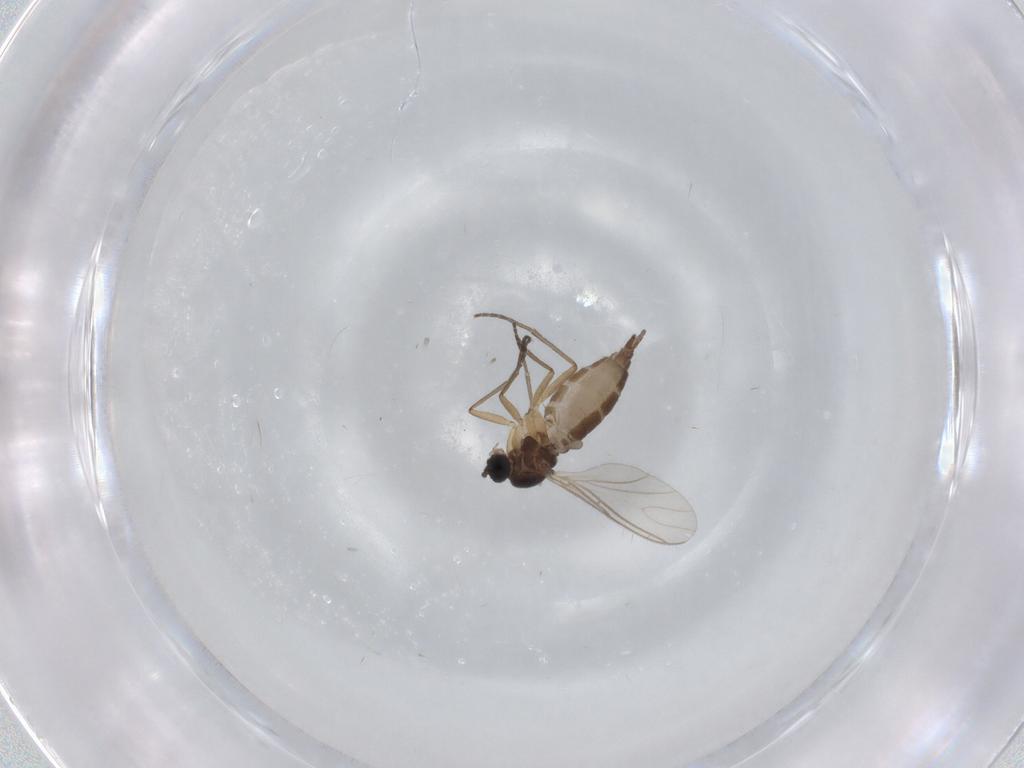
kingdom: Animalia
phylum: Arthropoda
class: Insecta
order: Diptera
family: Sciaridae
